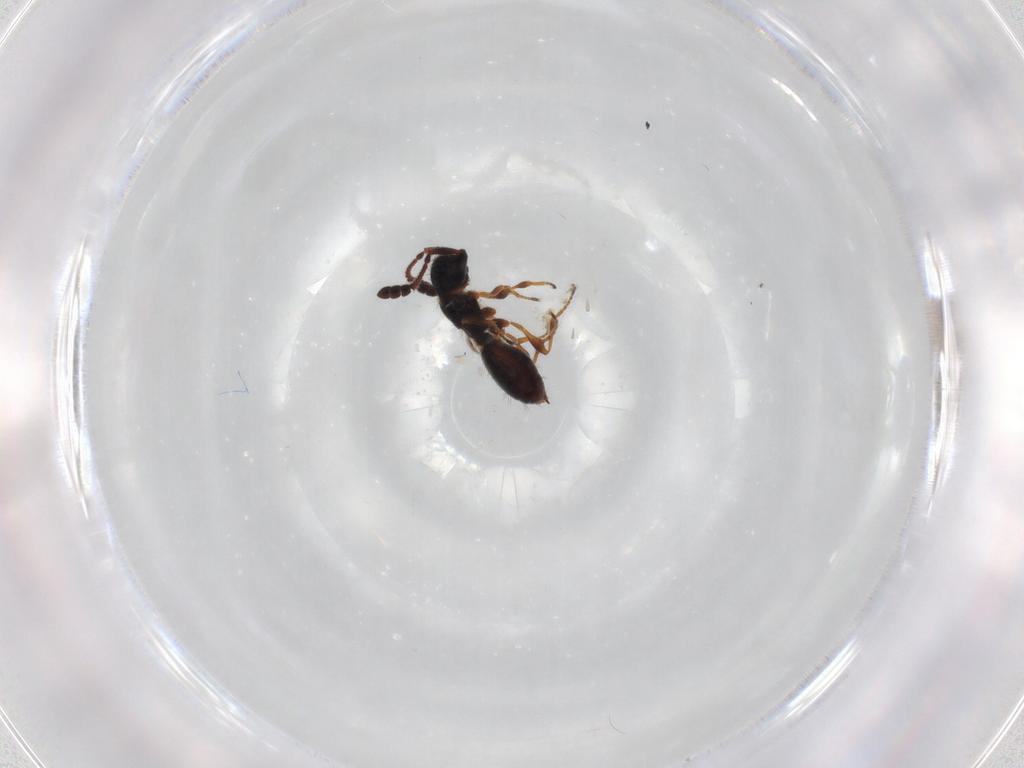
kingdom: Animalia
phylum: Arthropoda
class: Insecta
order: Hymenoptera
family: Diapriidae
